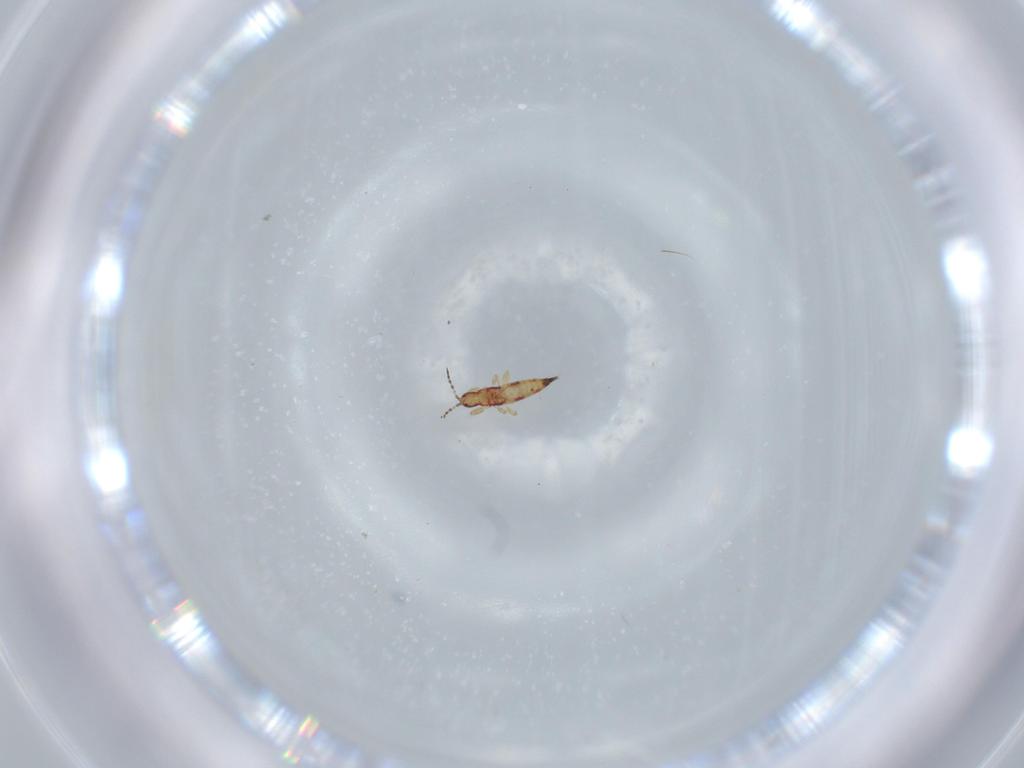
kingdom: Animalia
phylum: Arthropoda
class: Insecta
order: Thysanoptera
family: Phlaeothripidae
